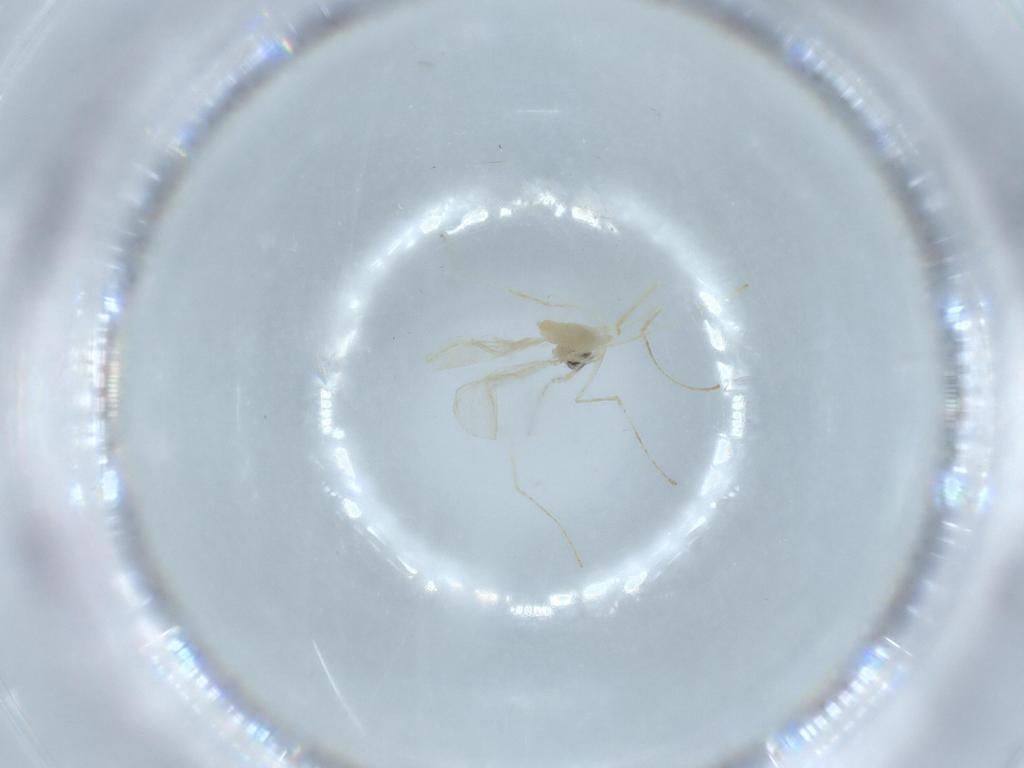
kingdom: Animalia
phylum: Arthropoda
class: Insecta
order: Diptera
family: Cecidomyiidae
